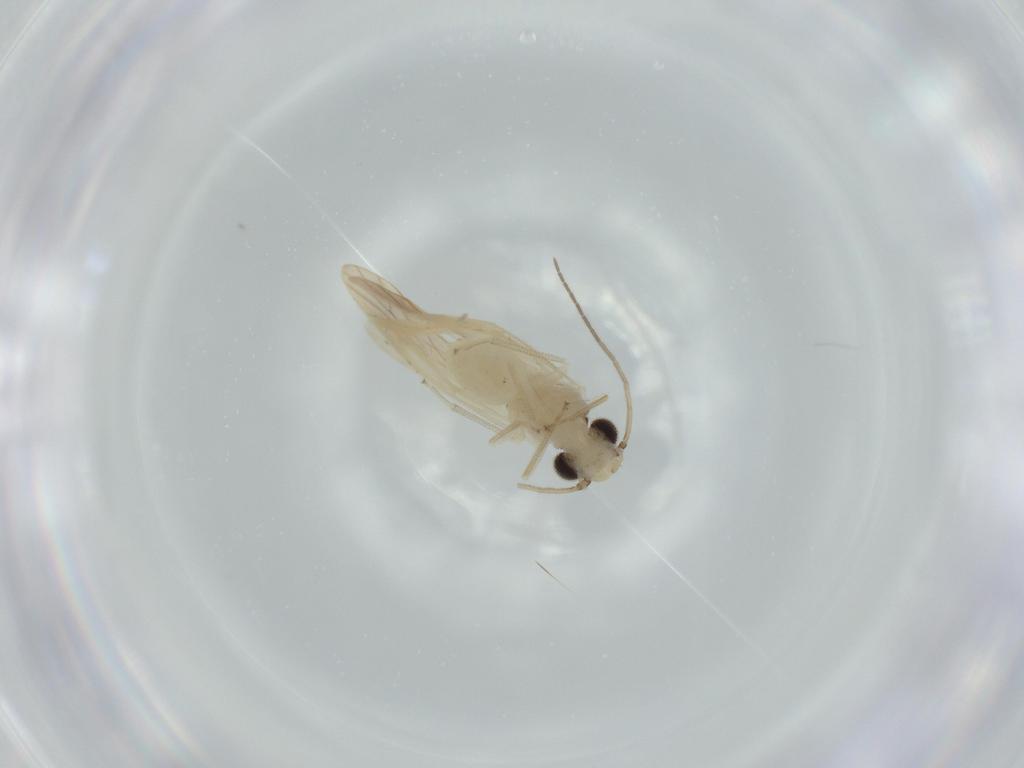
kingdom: Animalia
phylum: Arthropoda
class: Insecta
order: Psocodea
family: Caeciliusidae
